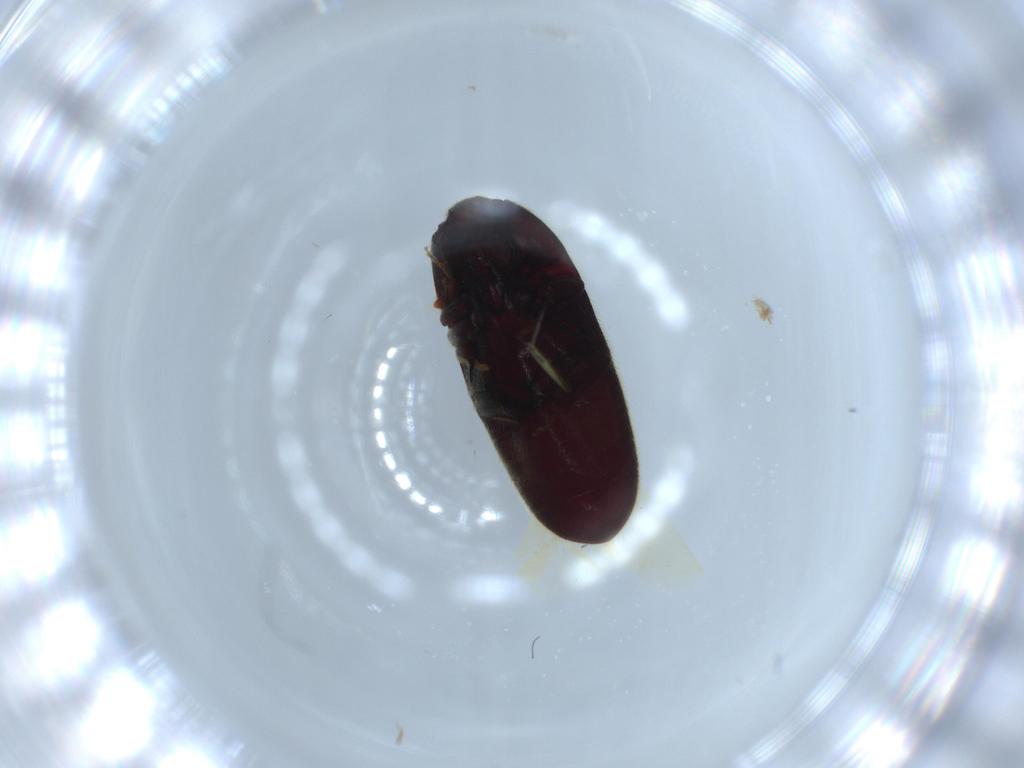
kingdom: Animalia
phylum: Arthropoda
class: Insecta
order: Coleoptera
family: Throscidae
